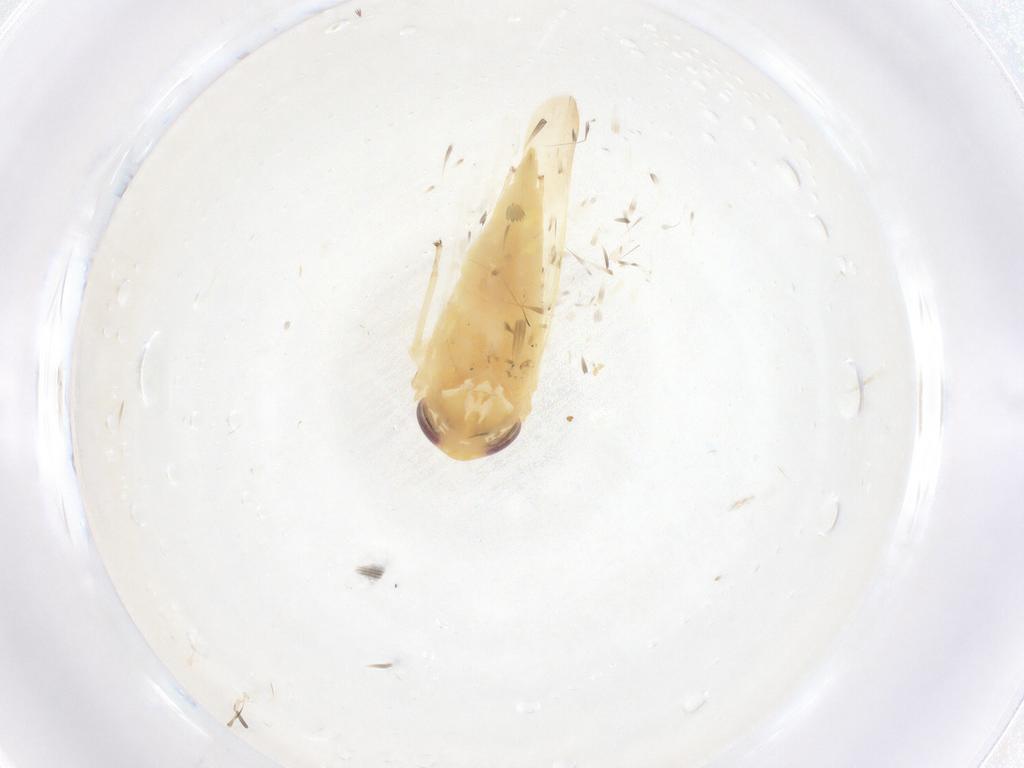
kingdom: Animalia
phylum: Arthropoda
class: Insecta
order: Hemiptera
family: Cicadellidae
